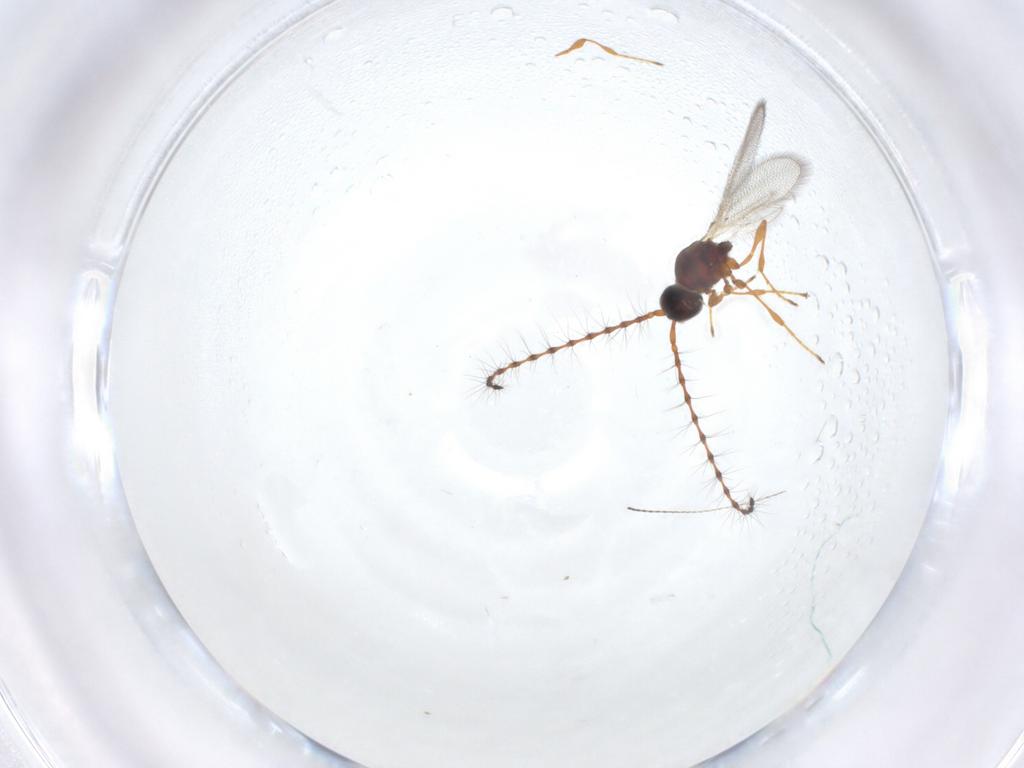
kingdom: Animalia
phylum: Arthropoda
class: Insecta
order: Hymenoptera
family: Diapriidae
